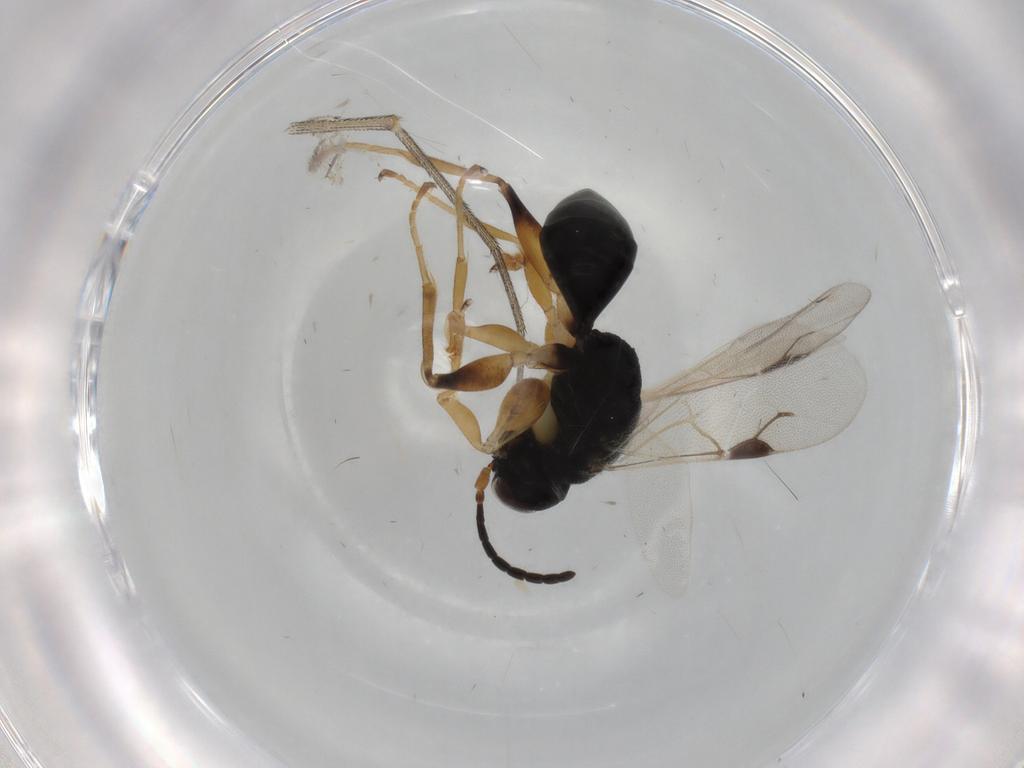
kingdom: Animalia
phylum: Arthropoda
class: Insecta
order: Hymenoptera
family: Dryinidae
